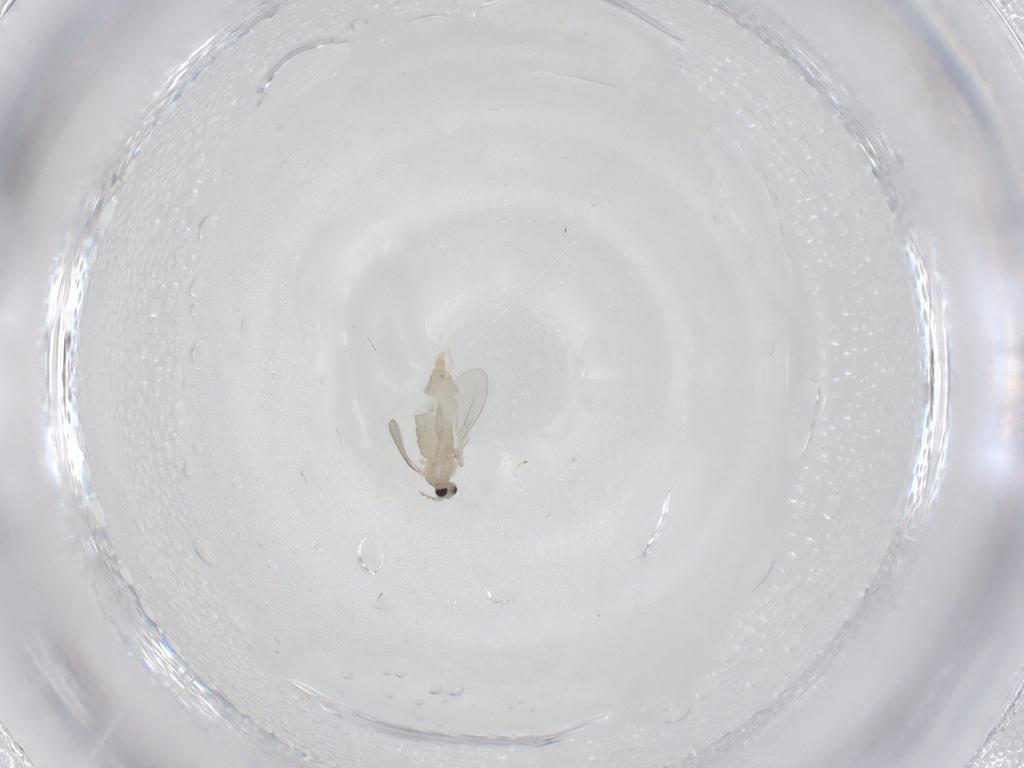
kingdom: Animalia
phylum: Arthropoda
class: Insecta
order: Diptera
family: Cecidomyiidae
